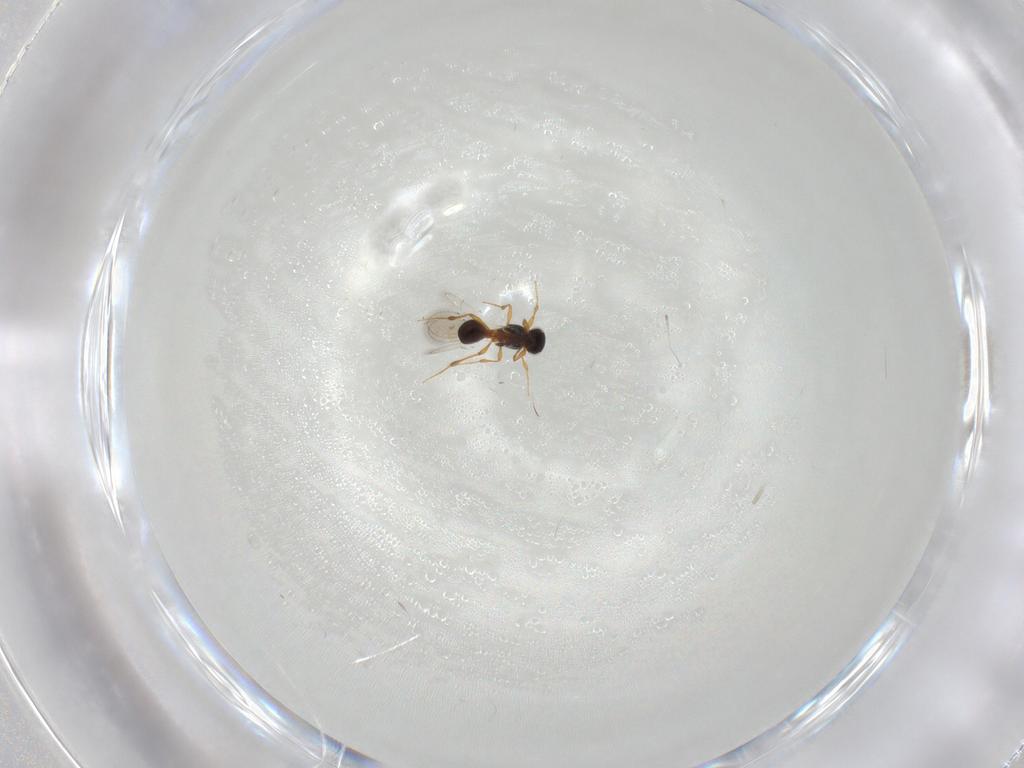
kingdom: Animalia
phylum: Arthropoda
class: Insecta
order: Hymenoptera
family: Platygastridae
